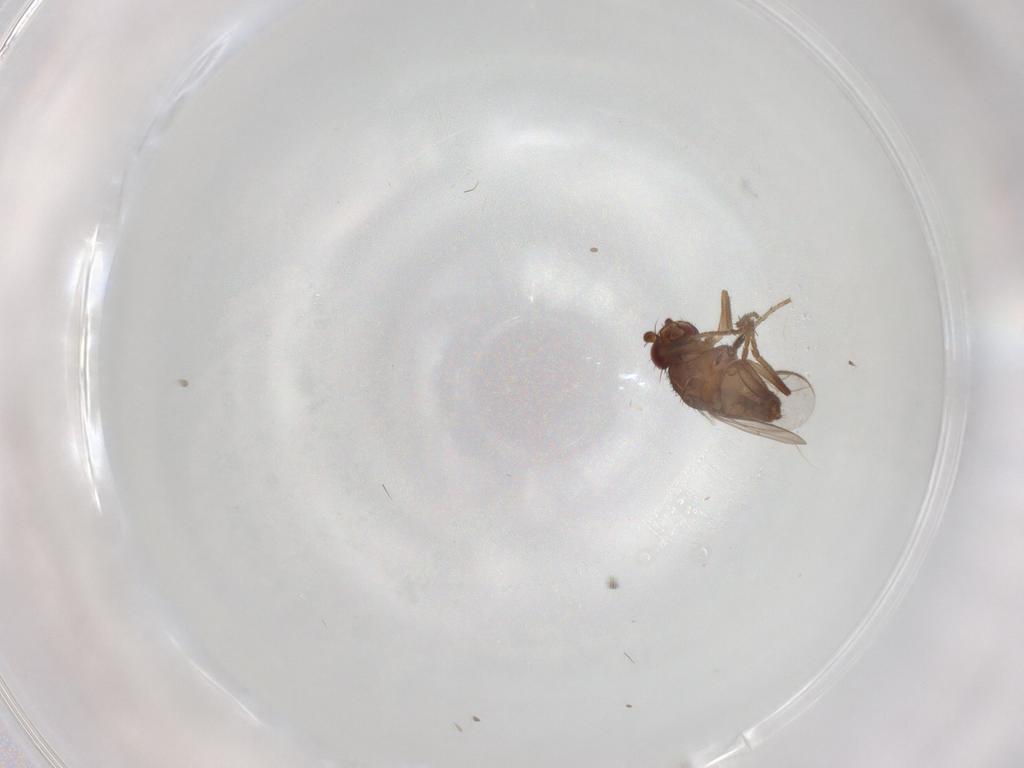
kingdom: Animalia
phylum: Arthropoda
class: Insecta
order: Diptera
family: Sphaeroceridae
